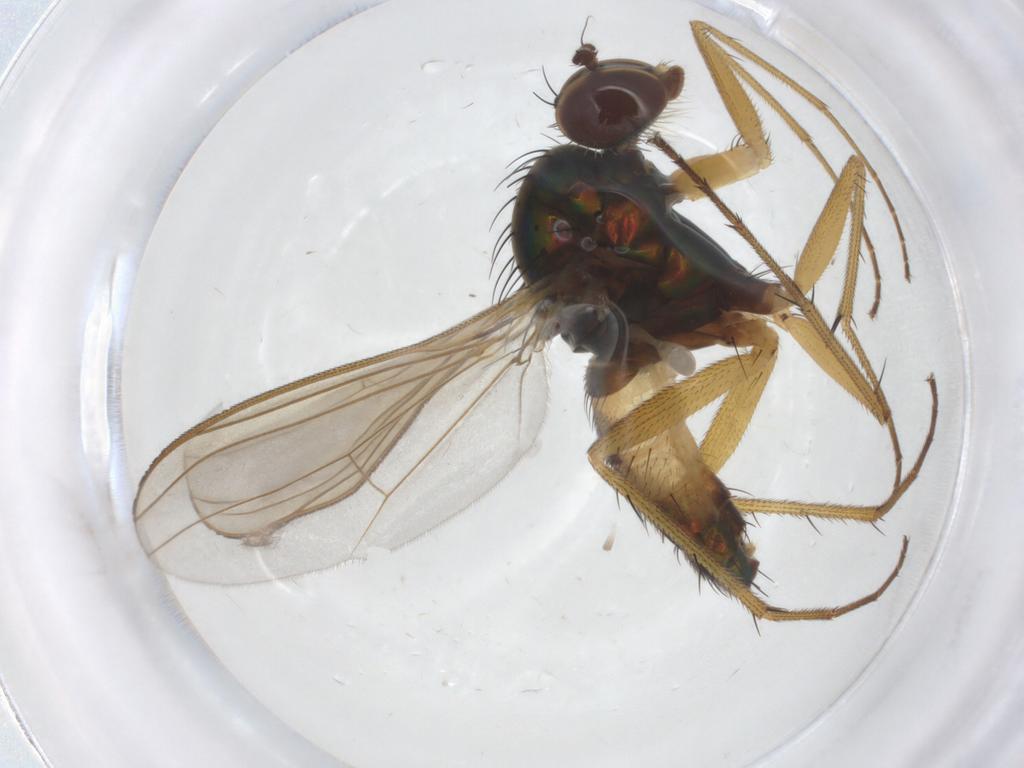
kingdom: Animalia
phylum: Arthropoda
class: Insecta
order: Diptera
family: Dolichopodidae
